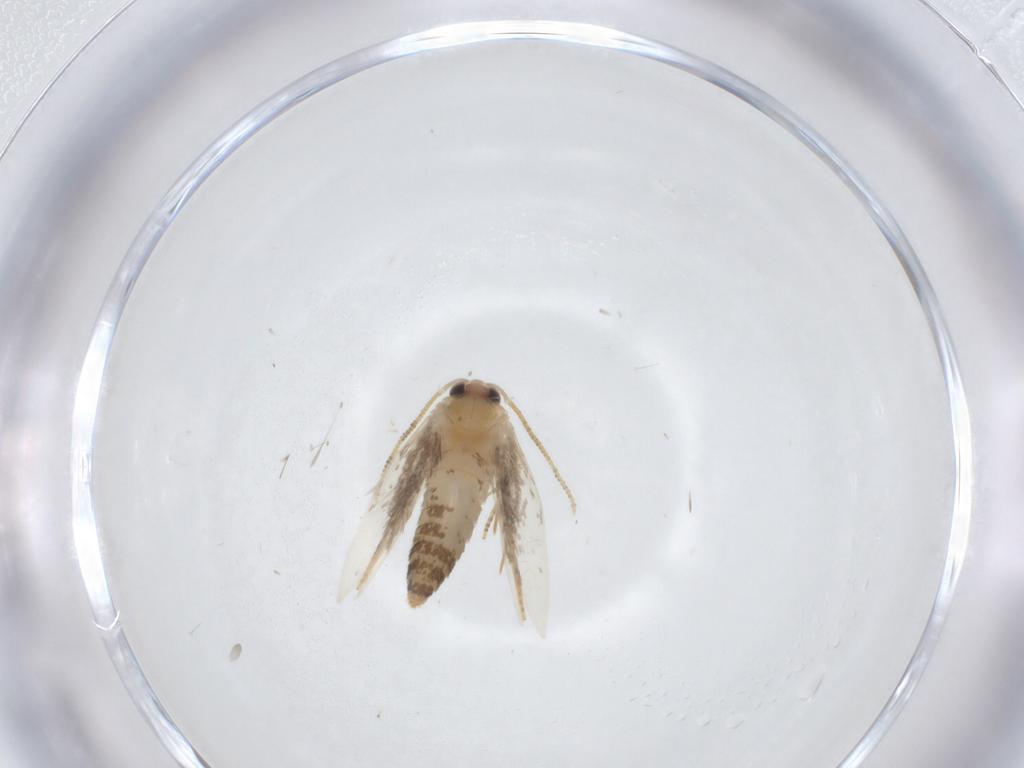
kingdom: Animalia
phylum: Arthropoda
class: Insecta
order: Lepidoptera
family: Nepticulidae
